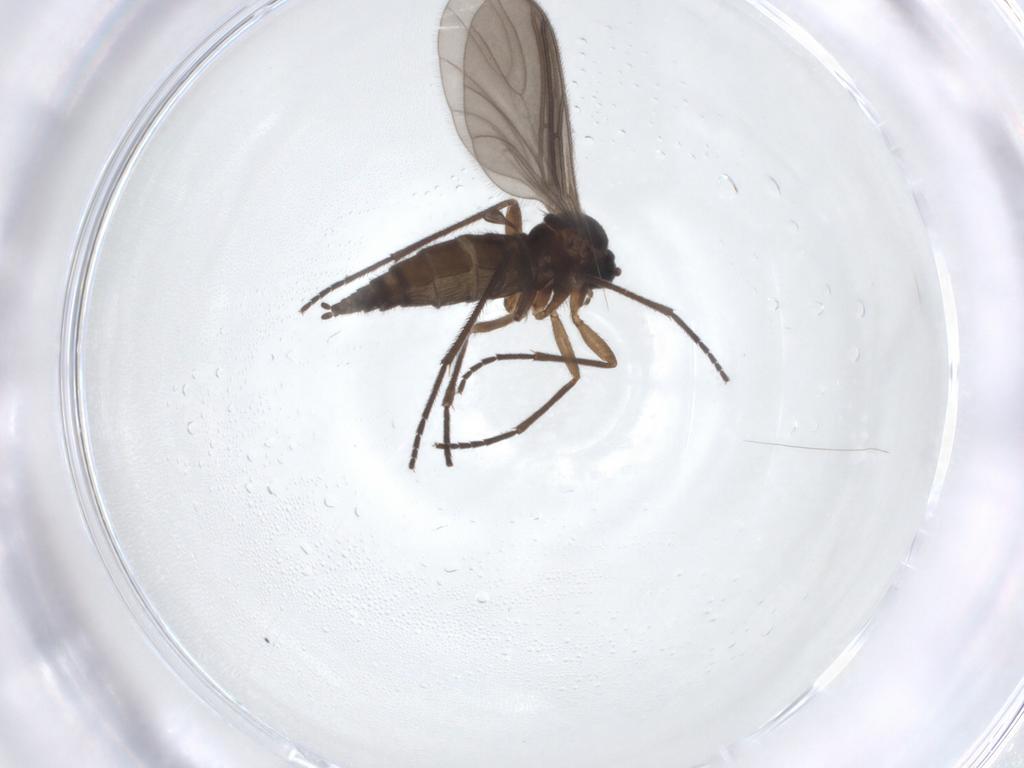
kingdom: Animalia
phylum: Arthropoda
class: Insecta
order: Diptera
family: Sciaridae
